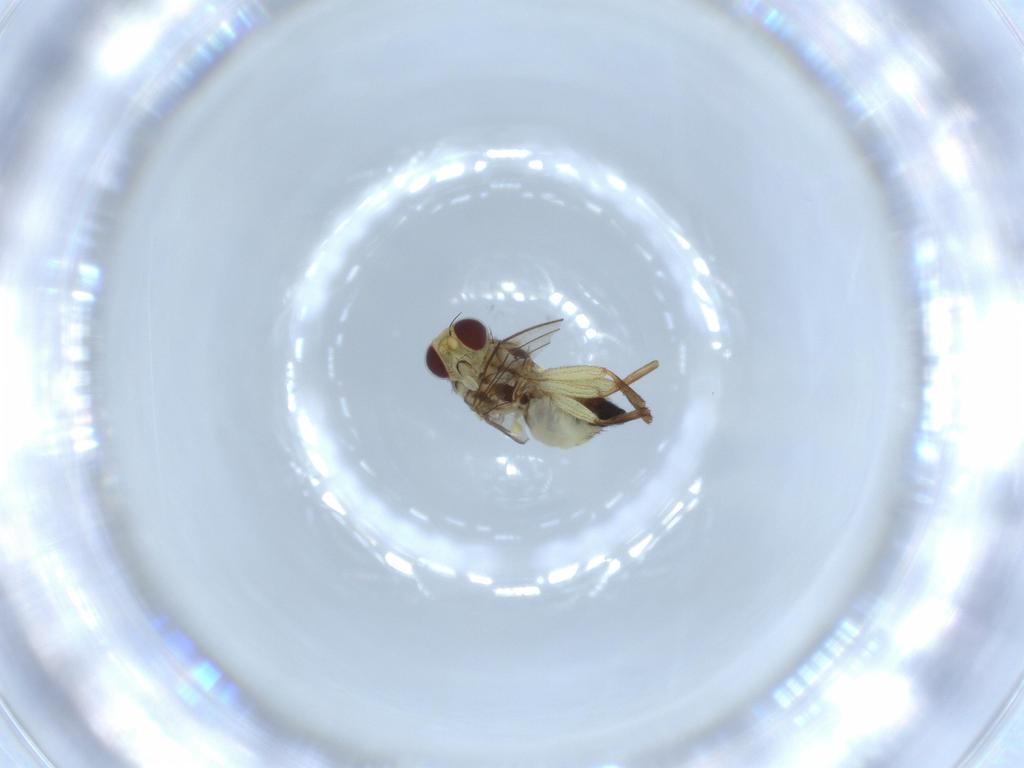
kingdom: Animalia
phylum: Arthropoda
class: Insecta
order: Diptera
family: Agromyzidae
